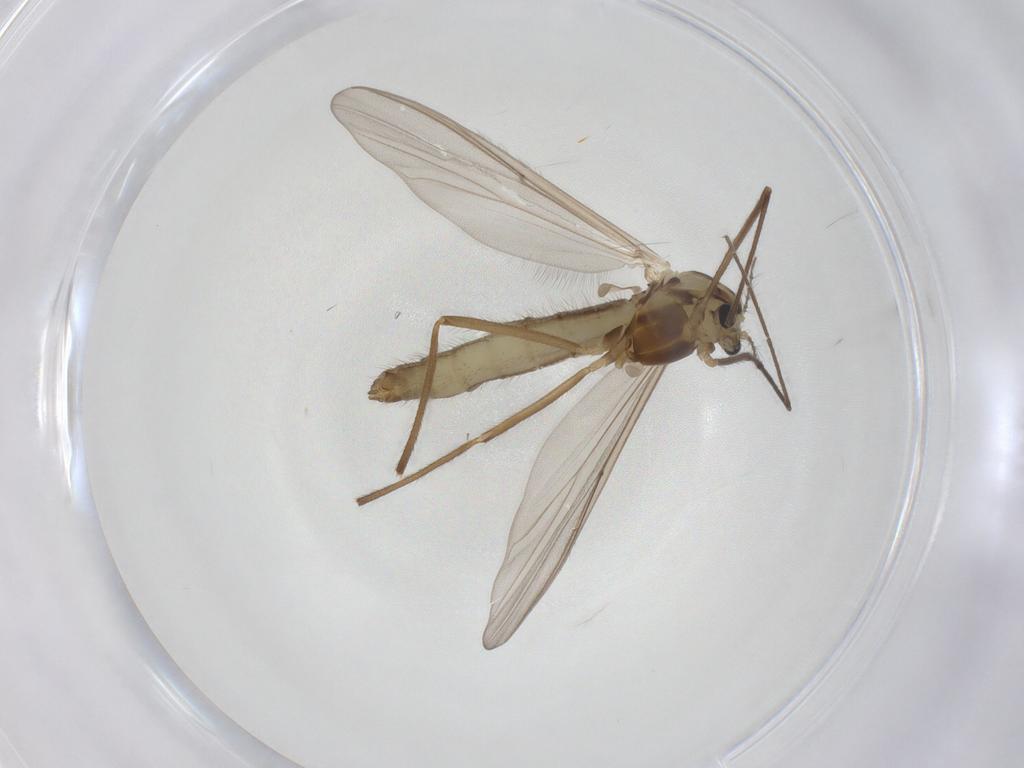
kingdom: Animalia
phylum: Arthropoda
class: Insecta
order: Diptera
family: Chironomidae
